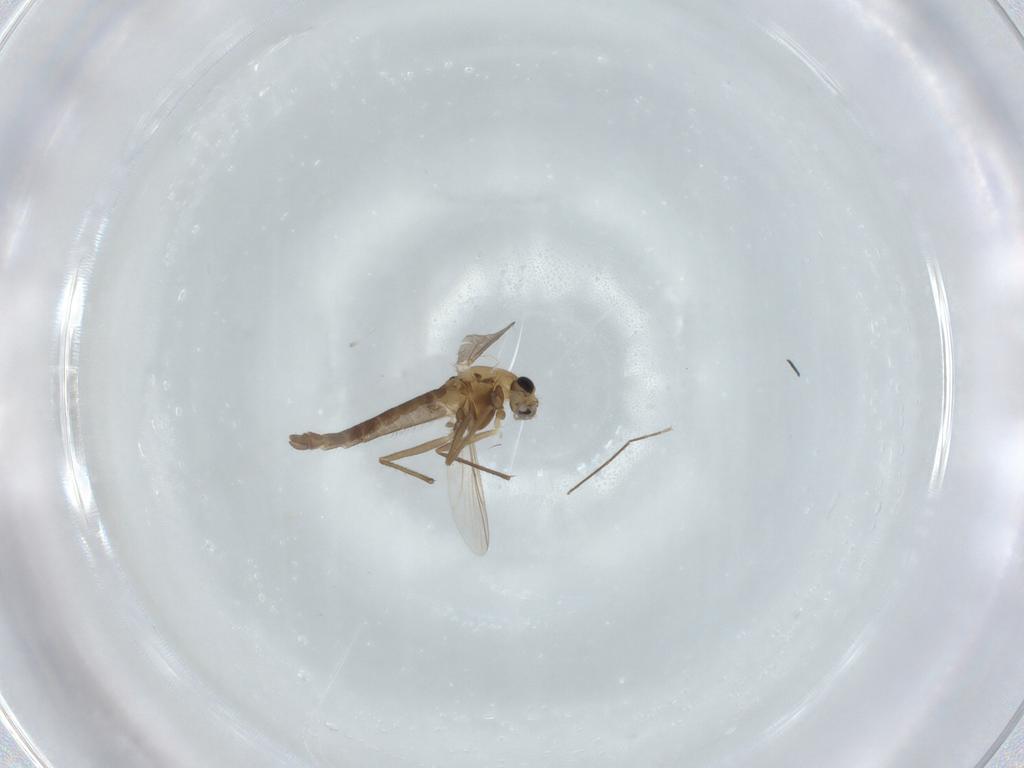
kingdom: Animalia
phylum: Arthropoda
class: Insecta
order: Diptera
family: Chironomidae
